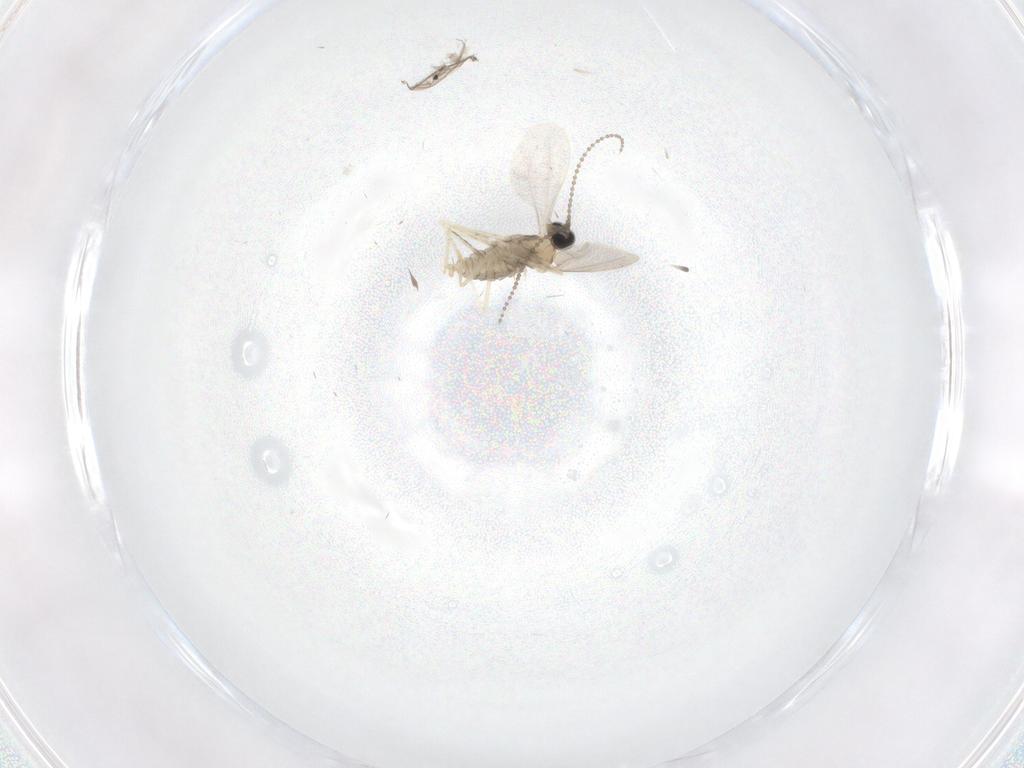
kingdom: Animalia
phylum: Arthropoda
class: Insecta
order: Diptera
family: Cecidomyiidae
